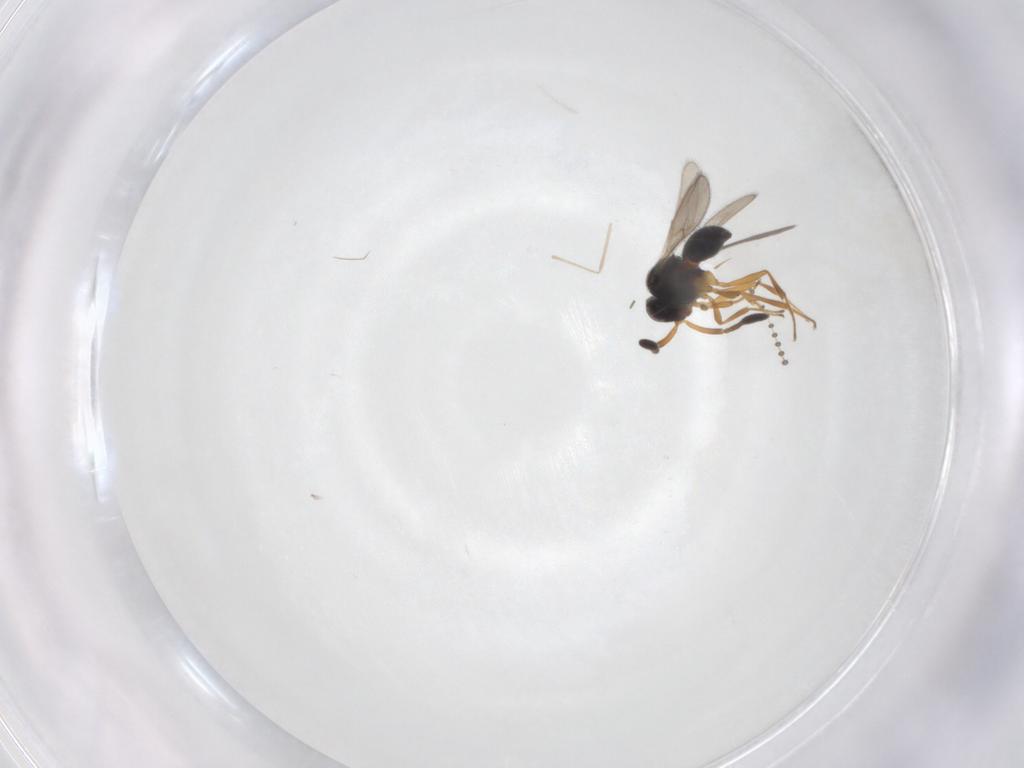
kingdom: Animalia
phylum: Arthropoda
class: Insecta
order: Hymenoptera
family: Scelionidae
